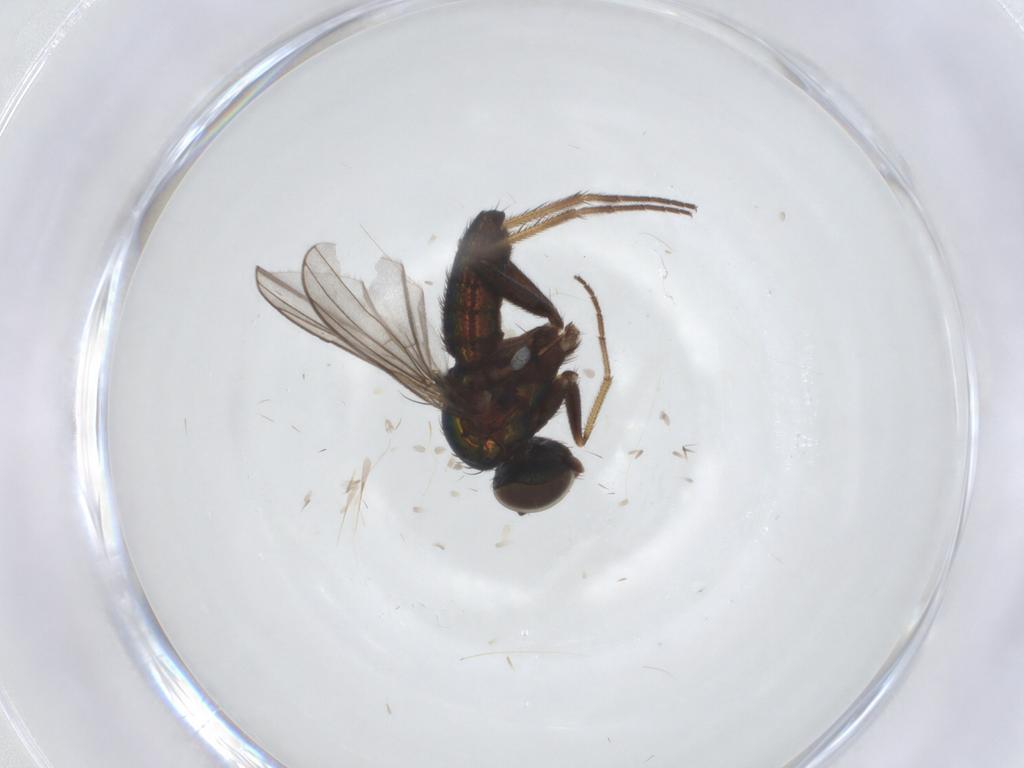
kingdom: Animalia
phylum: Arthropoda
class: Insecta
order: Diptera
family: Dolichopodidae
